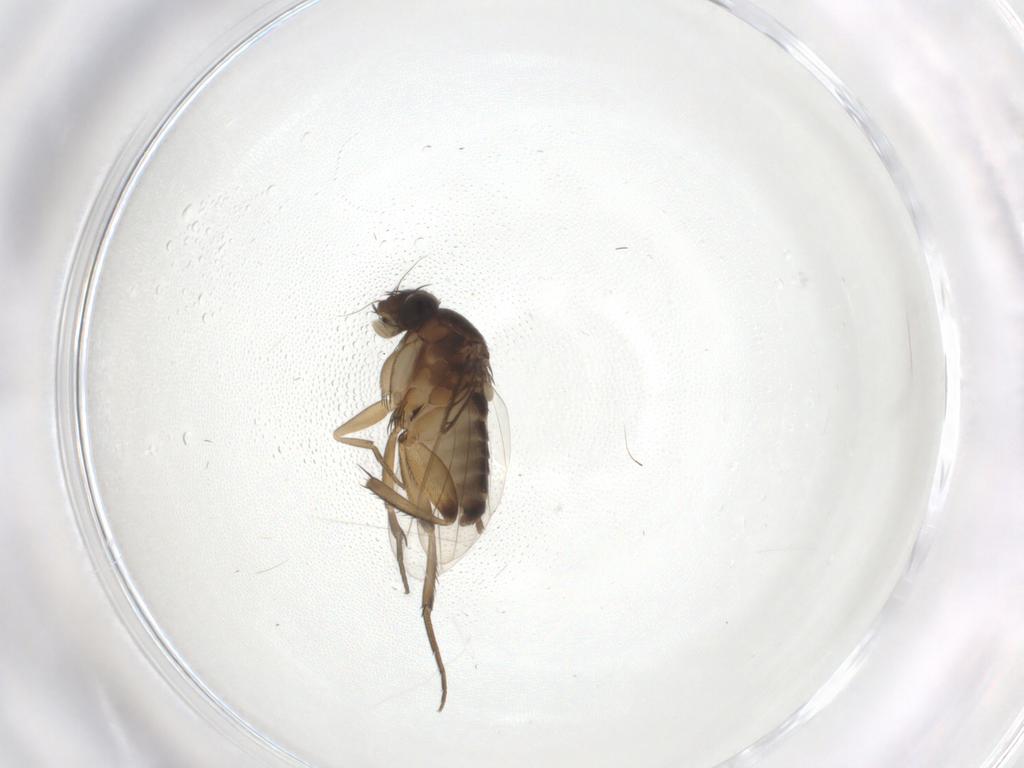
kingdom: Animalia
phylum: Arthropoda
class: Insecta
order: Diptera
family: Phoridae
